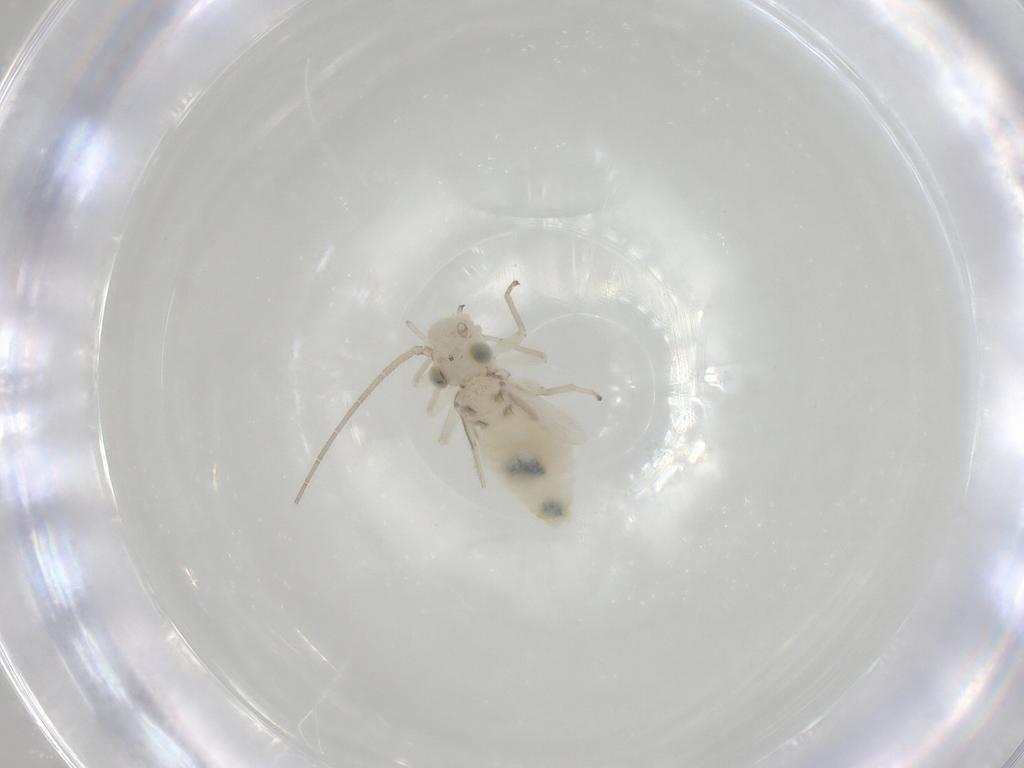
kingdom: Animalia
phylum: Arthropoda
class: Insecta
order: Psocodea
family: Caeciliusidae
